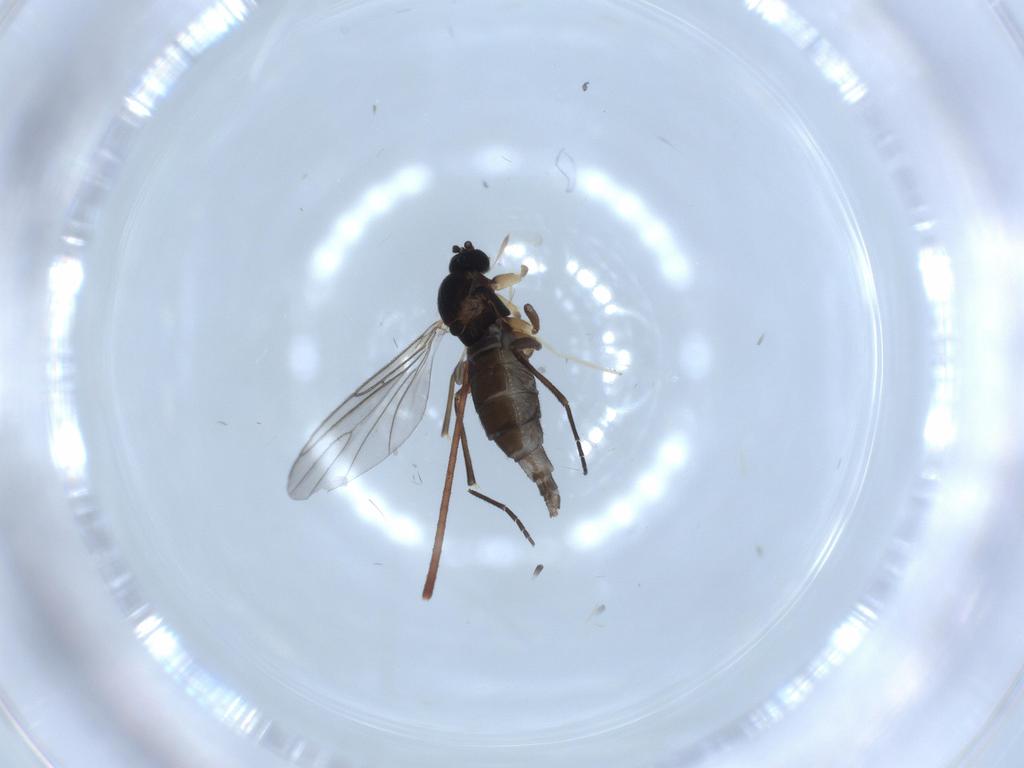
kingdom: Animalia
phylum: Arthropoda
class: Insecta
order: Diptera
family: Sciaridae
